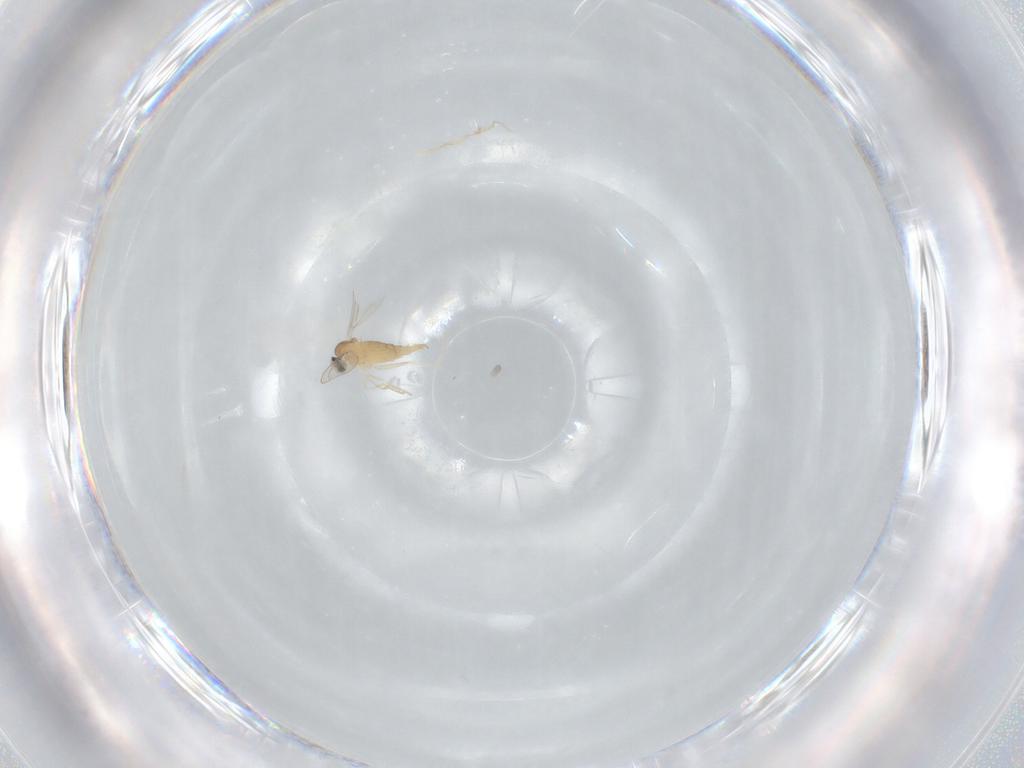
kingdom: Animalia
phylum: Arthropoda
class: Insecta
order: Diptera
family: Cecidomyiidae
